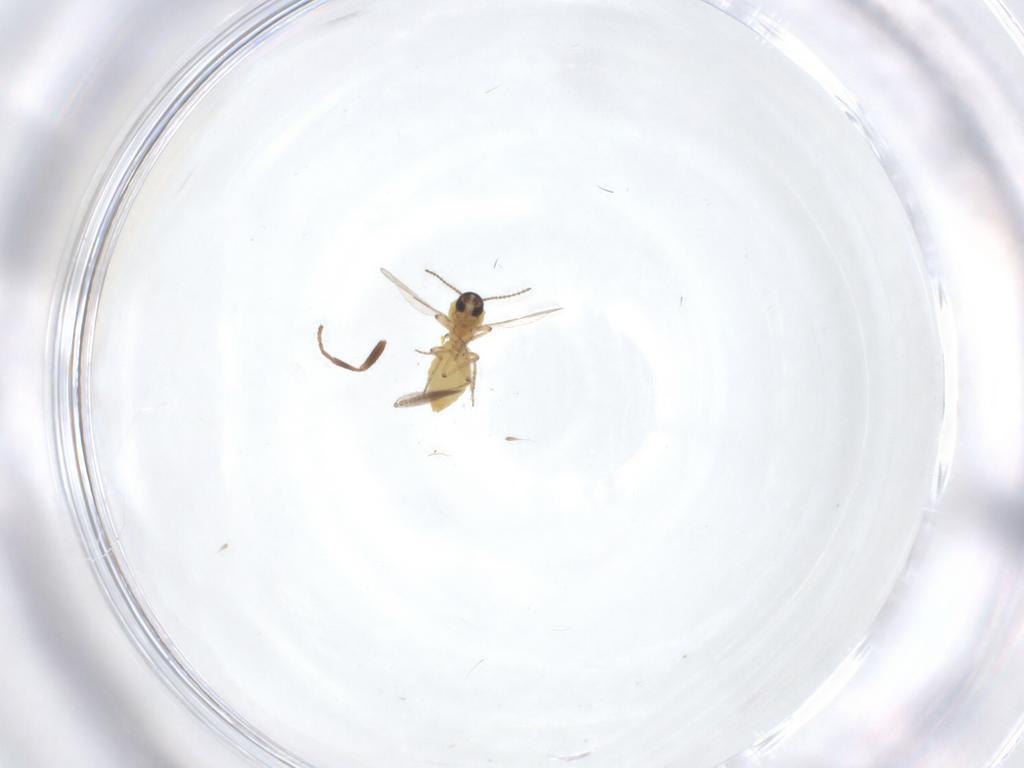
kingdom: Animalia
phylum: Arthropoda
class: Insecta
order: Diptera
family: Ceratopogonidae
